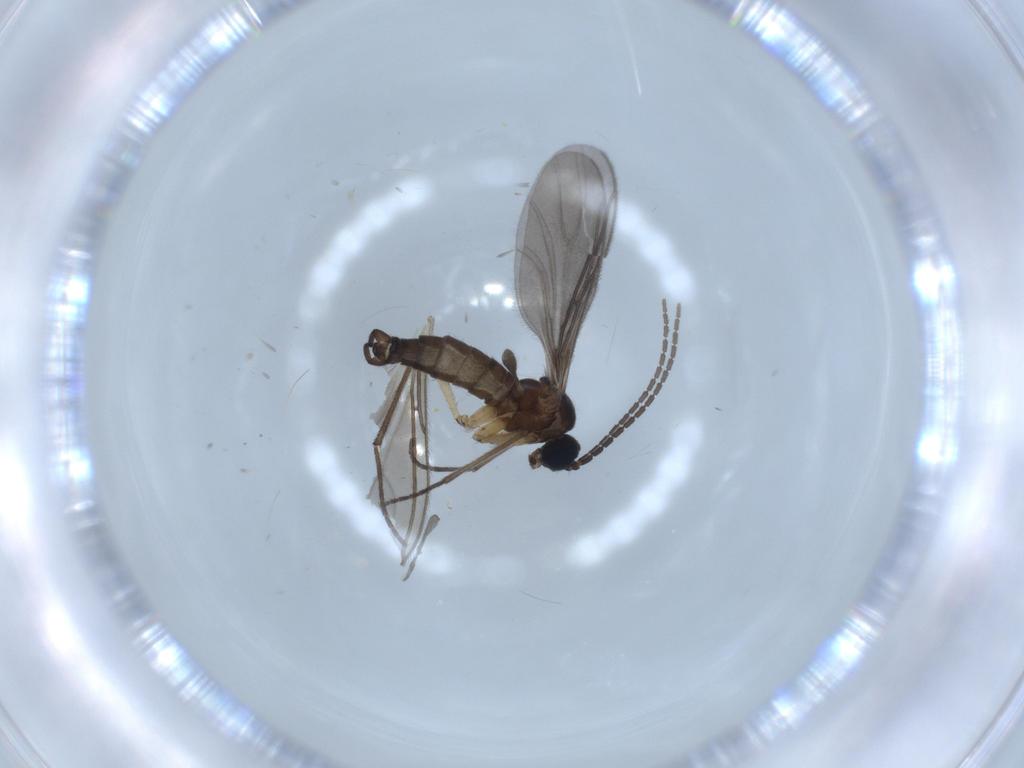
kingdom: Animalia
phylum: Arthropoda
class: Insecta
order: Diptera
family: Sciaridae
